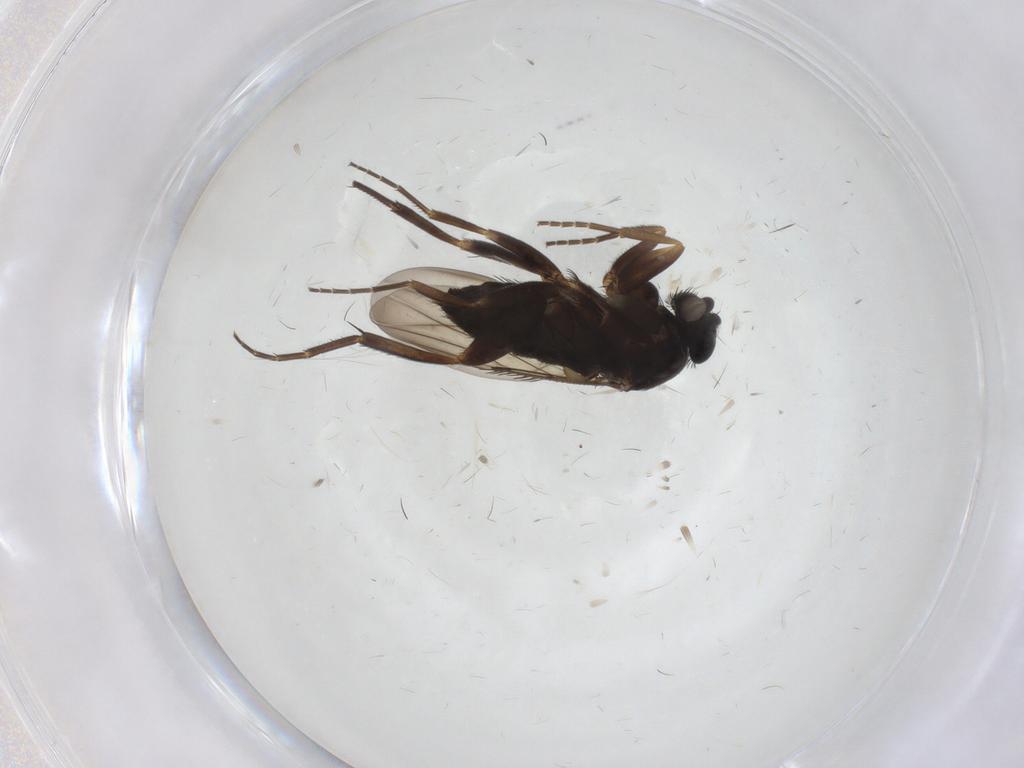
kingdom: Animalia
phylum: Arthropoda
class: Insecta
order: Diptera
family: Phoridae
